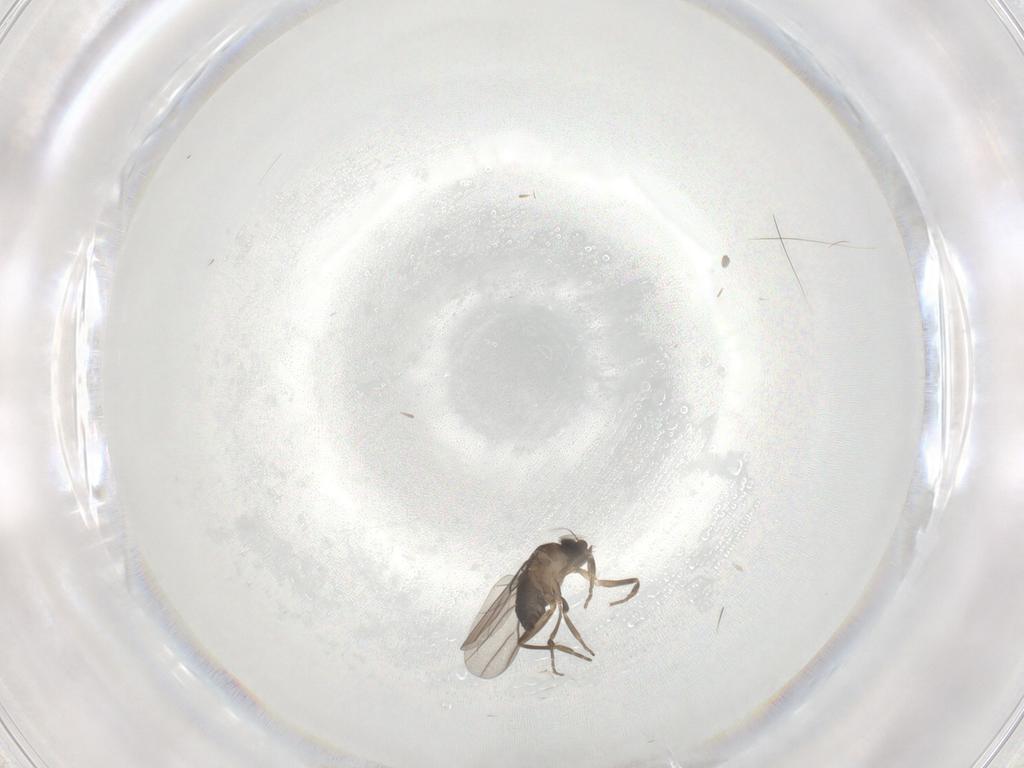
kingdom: Animalia
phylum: Arthropoda
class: Insecta
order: Diptera
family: Phoridae
